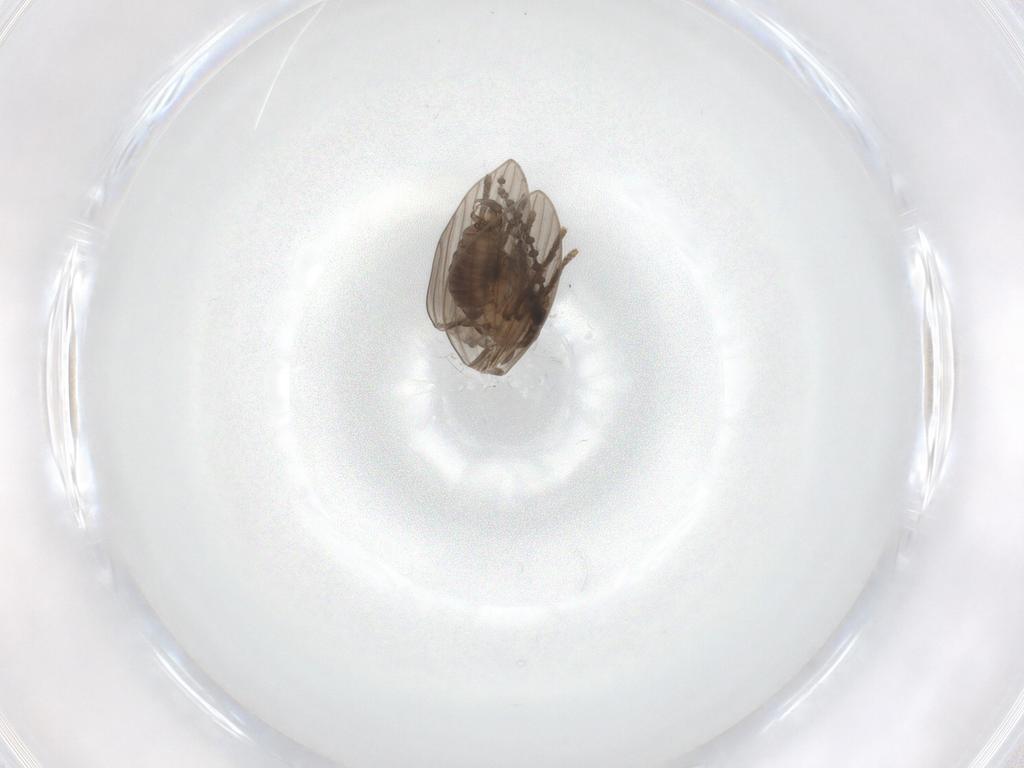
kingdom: Animalia
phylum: Arthropoda
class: Insecta
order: Diptera
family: Psychodidae
